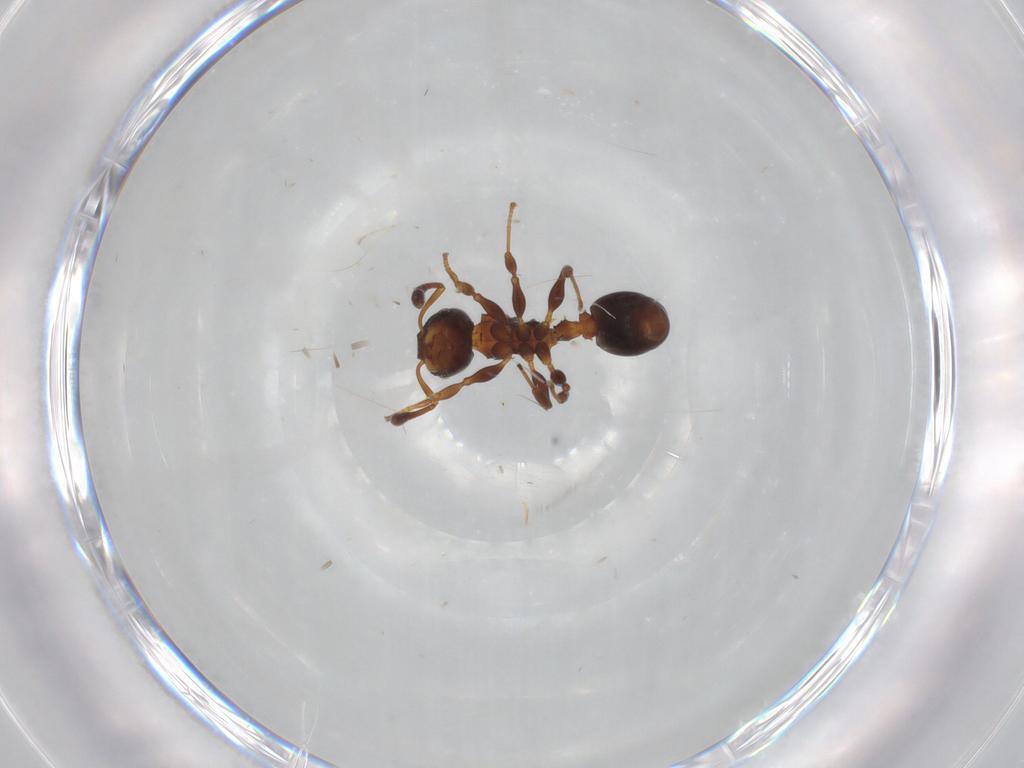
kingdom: Animalia
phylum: Arthropoda
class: Insecta
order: Hymenoptera
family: Formicidae
